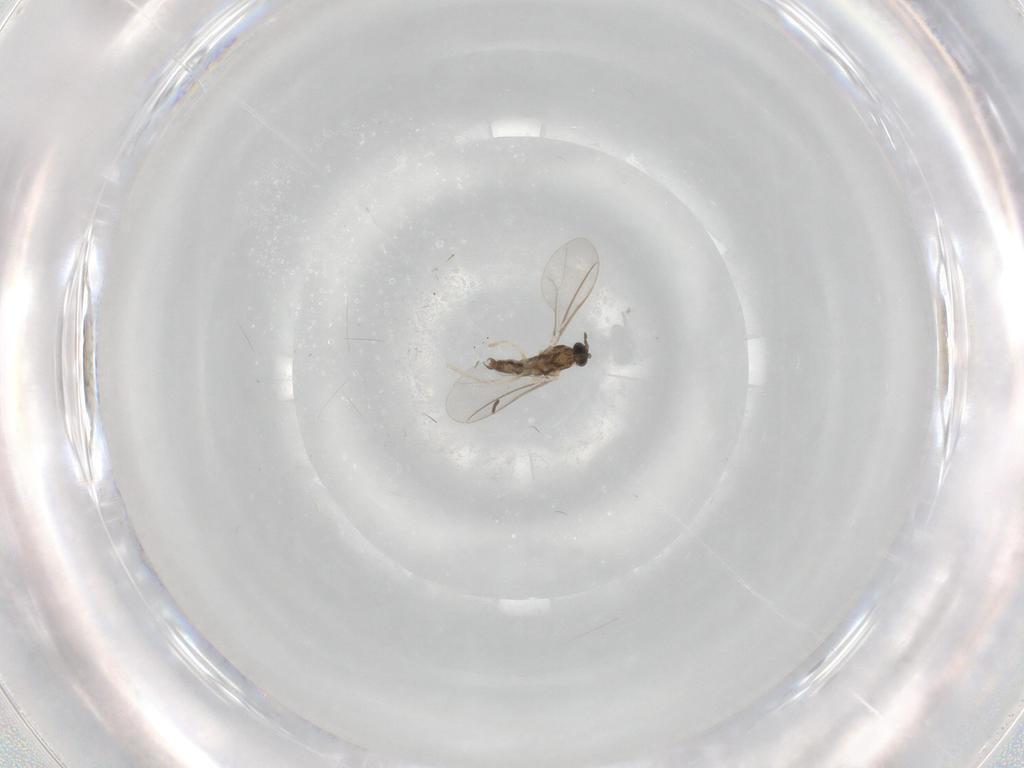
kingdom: Animalia
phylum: Arthropoda
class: Insecta
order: Diptera
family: Cecidomyiidae
